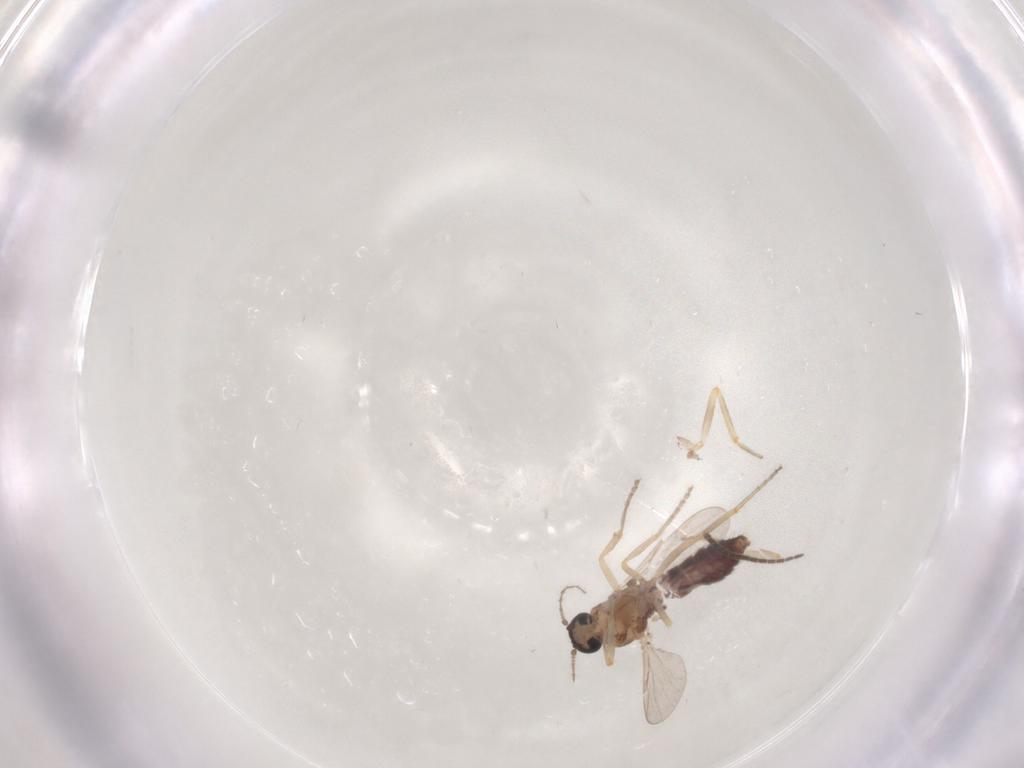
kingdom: Animalia
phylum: Arthropoda
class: Insecta
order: Diptera
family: Ceratopogonidae
